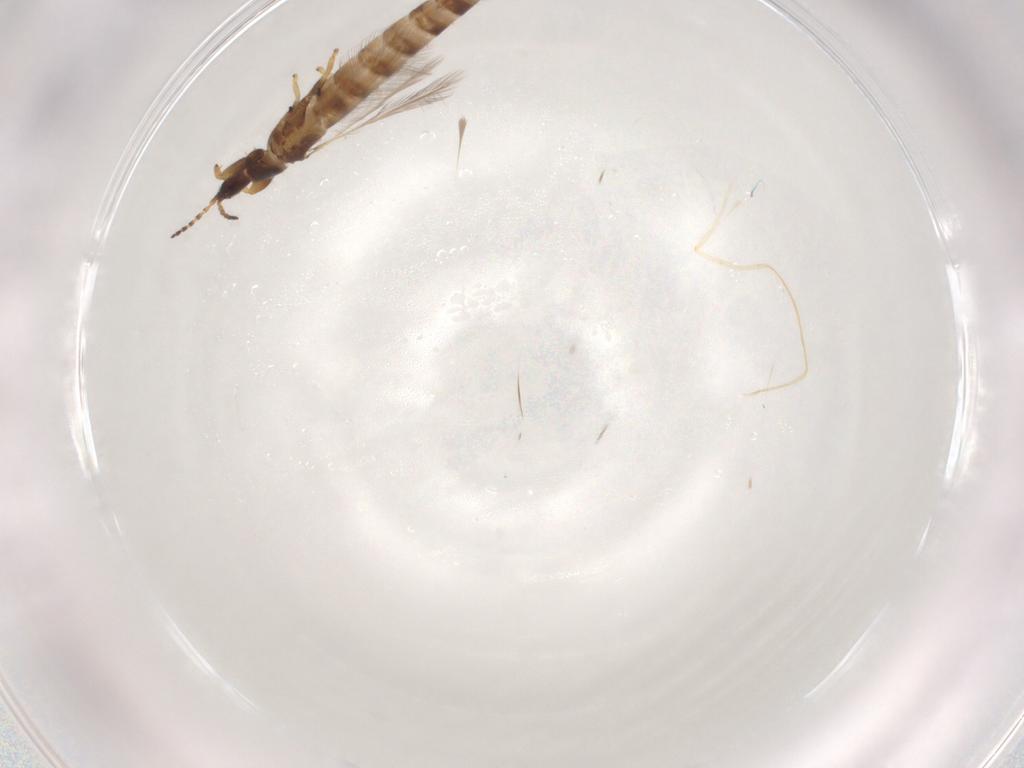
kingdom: Animalia
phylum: Arthropoda
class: Insecta
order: Thysanoptera
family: Phlaeothripidae
